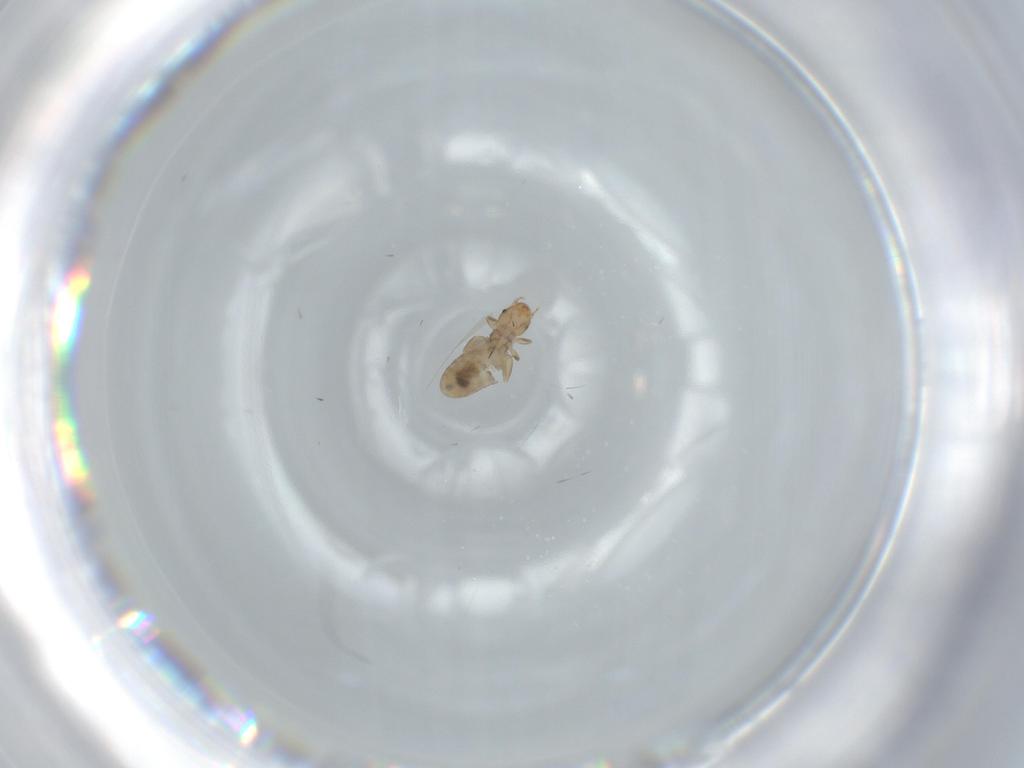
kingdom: Animalia
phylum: Arthropoda
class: Insecta
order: Psocodea
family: Liposcelididae
